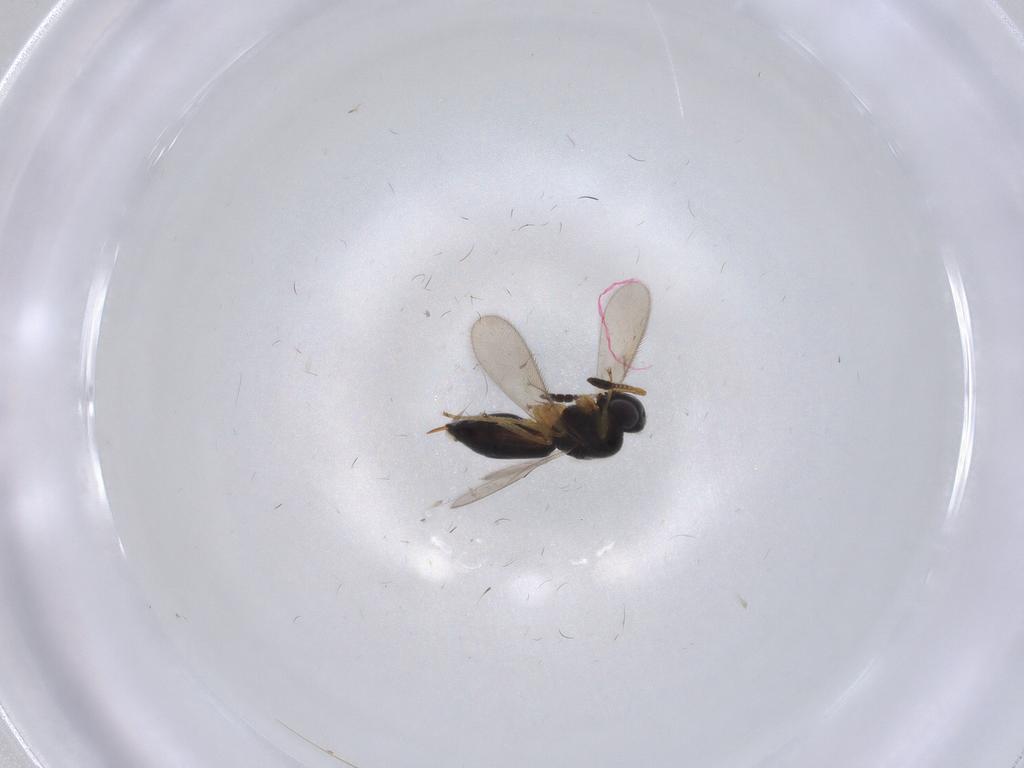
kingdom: Animalia
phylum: Arthropoda
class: Insecta
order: Hymenoptera
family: Scelionidae
